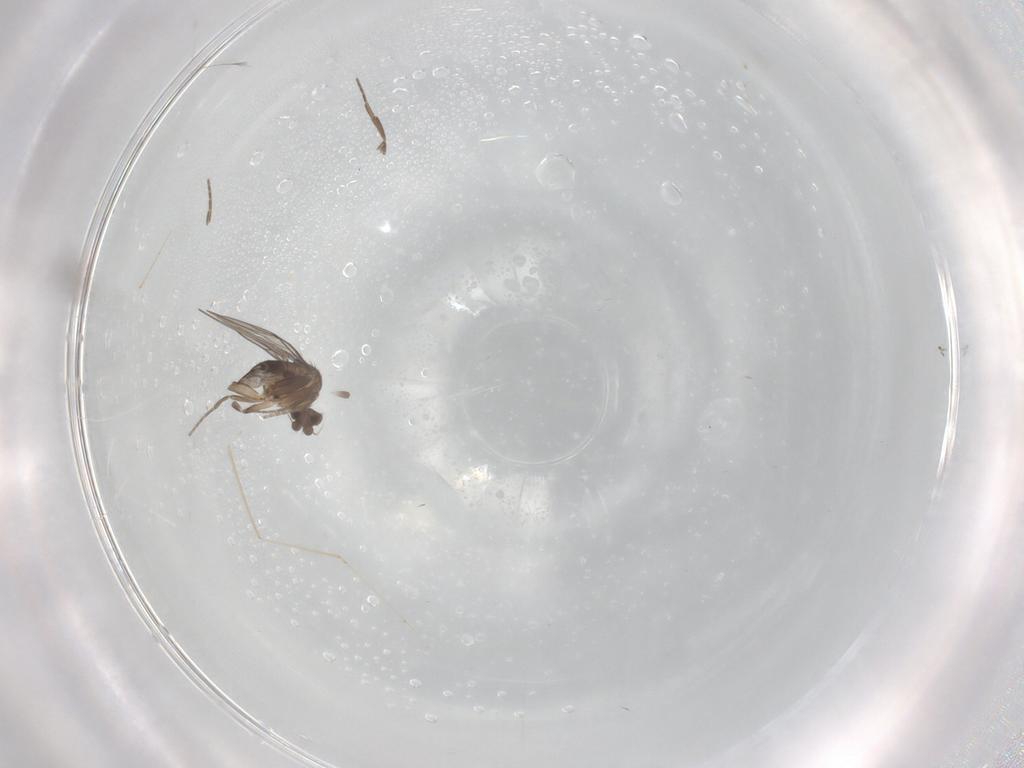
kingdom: Animalia
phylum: Arthropoda
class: Insecta
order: Diptera
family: Phoridae
